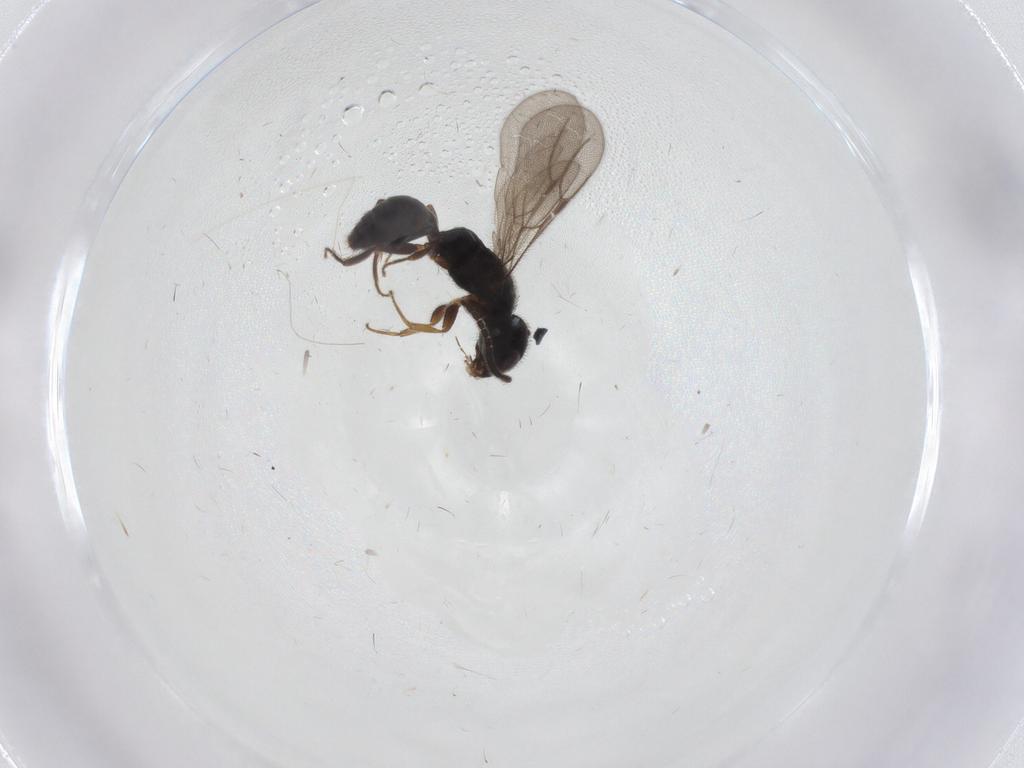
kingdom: Animalia
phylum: Arthropoda
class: Insecta
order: Hymenoptera
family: Bethylidae
